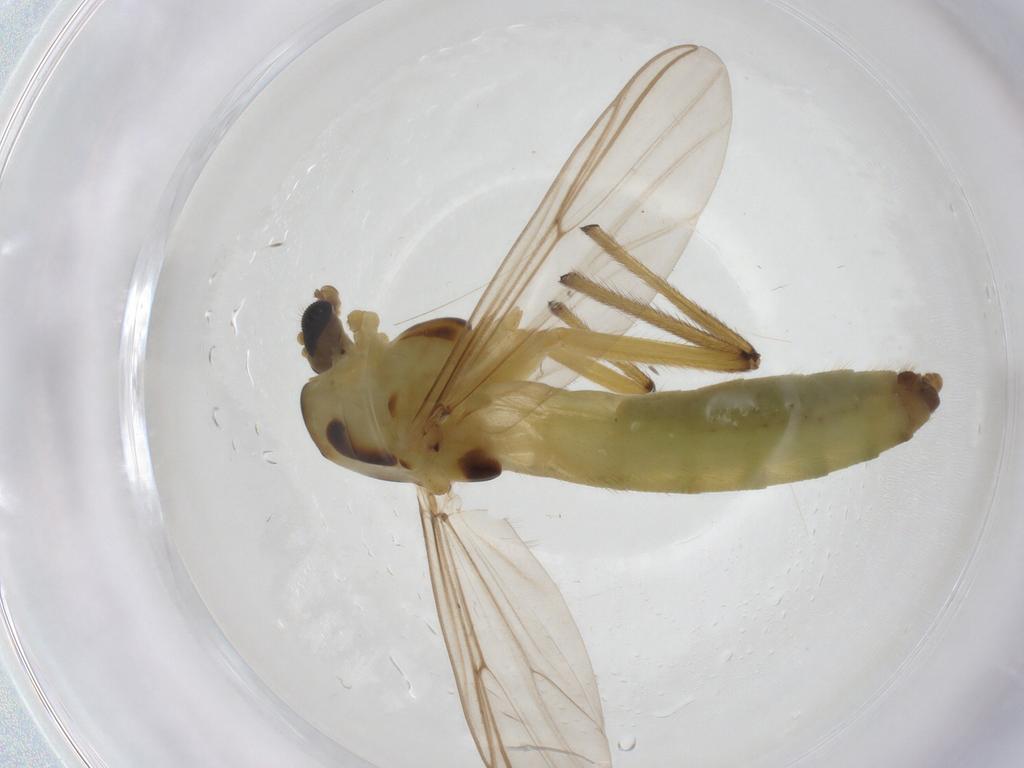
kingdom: Animalia
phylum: Arthropoda
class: Insecta
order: Diptera
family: Chironomidae
